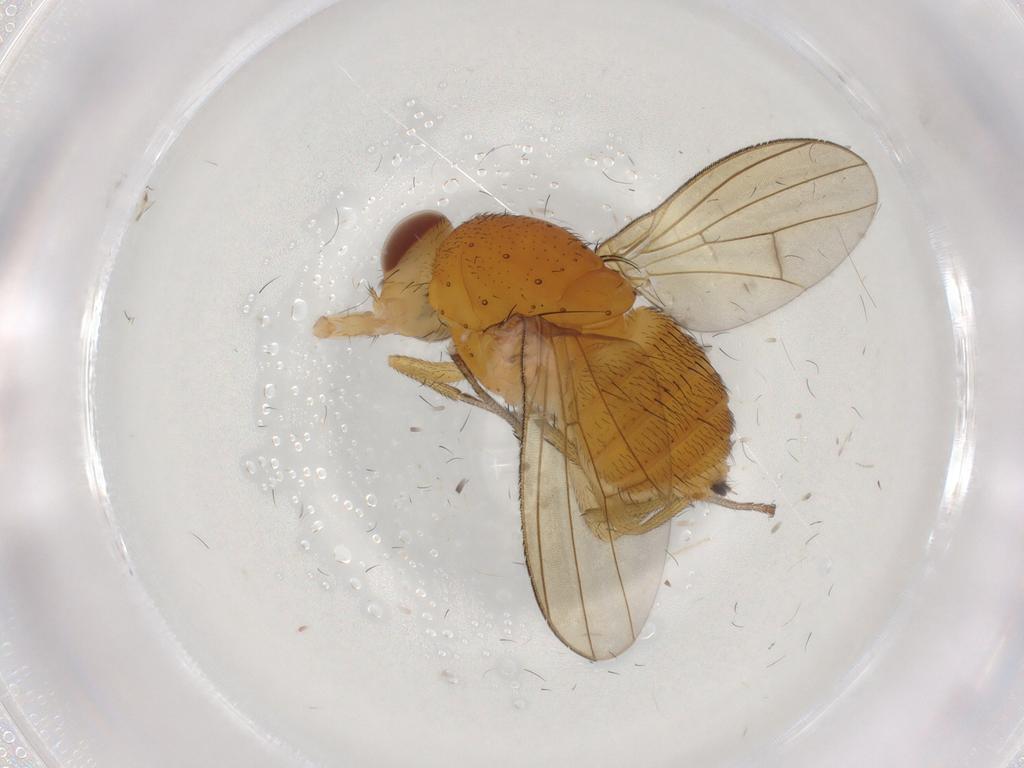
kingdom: Animalia
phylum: Arthropoda
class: Insecta
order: Diptera
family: Lauxaniidae
